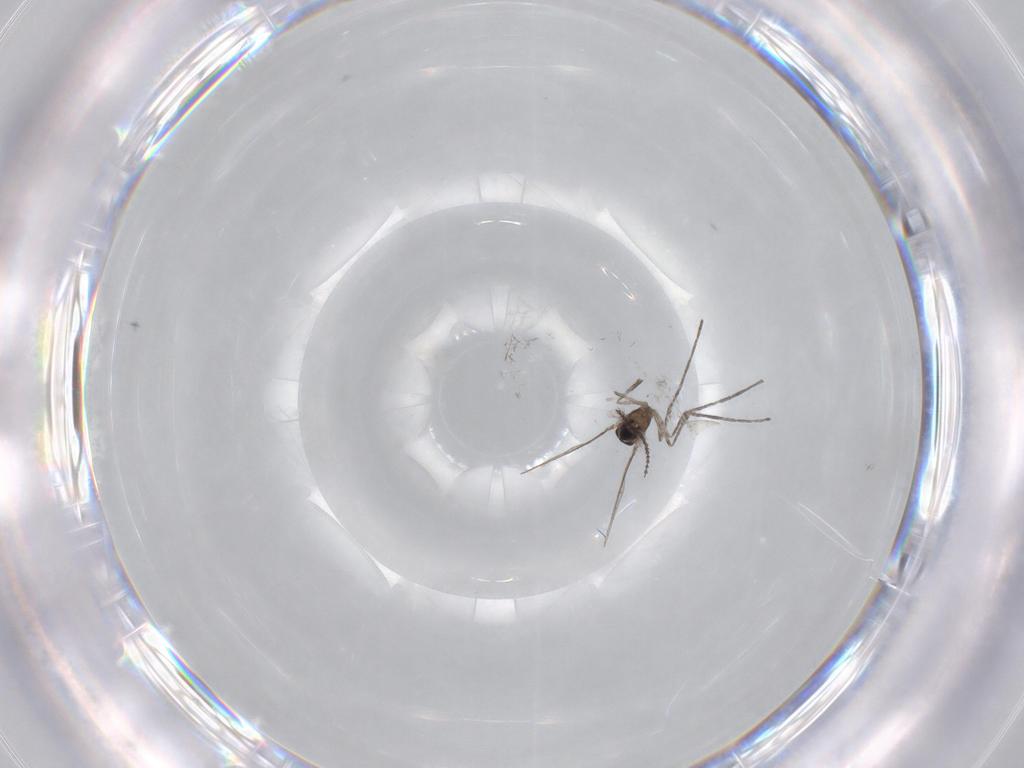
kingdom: Animalia
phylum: Arthropoda
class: Insecta
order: Diptera
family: Cecidomyiidae
